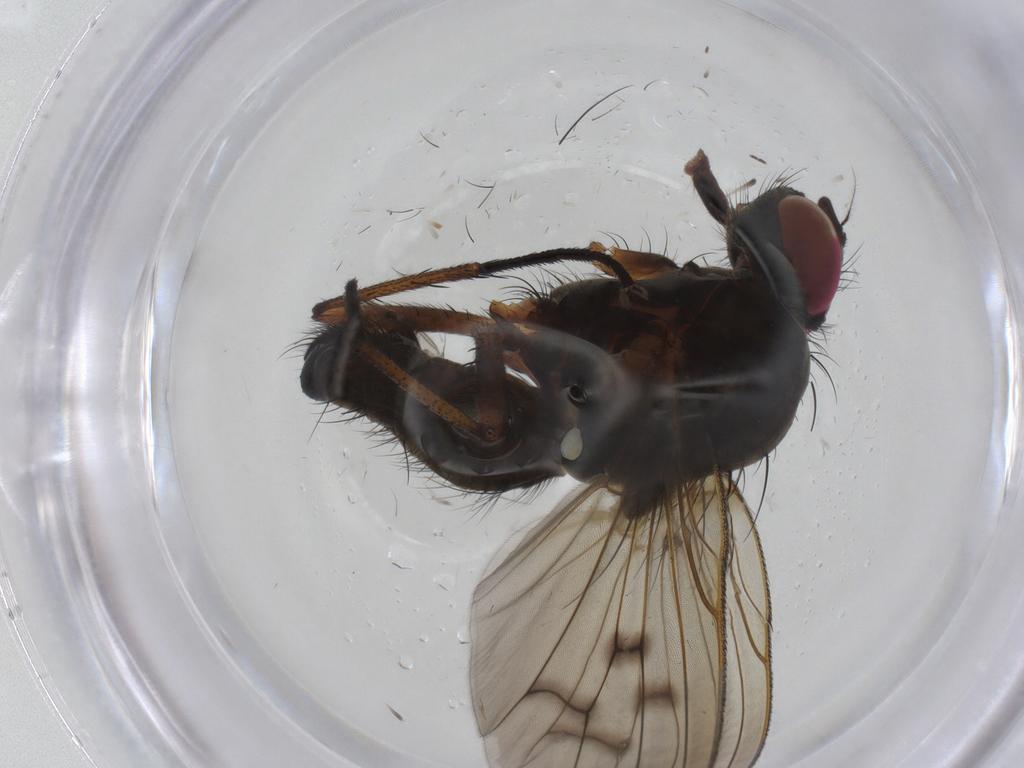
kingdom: Animalia
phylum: Arthropoda
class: Insecta
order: Diptera
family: Anthomyiidae
